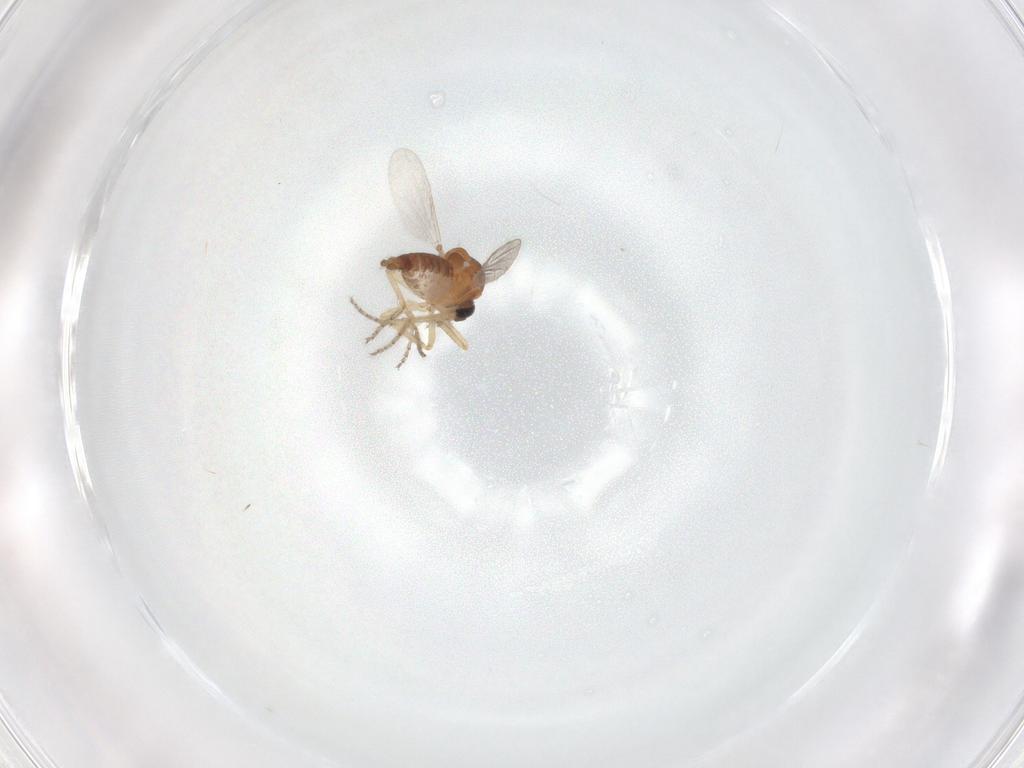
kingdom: Animalia
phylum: Arthropoda
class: Insecta
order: Diptera
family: Ceratopogonidae
